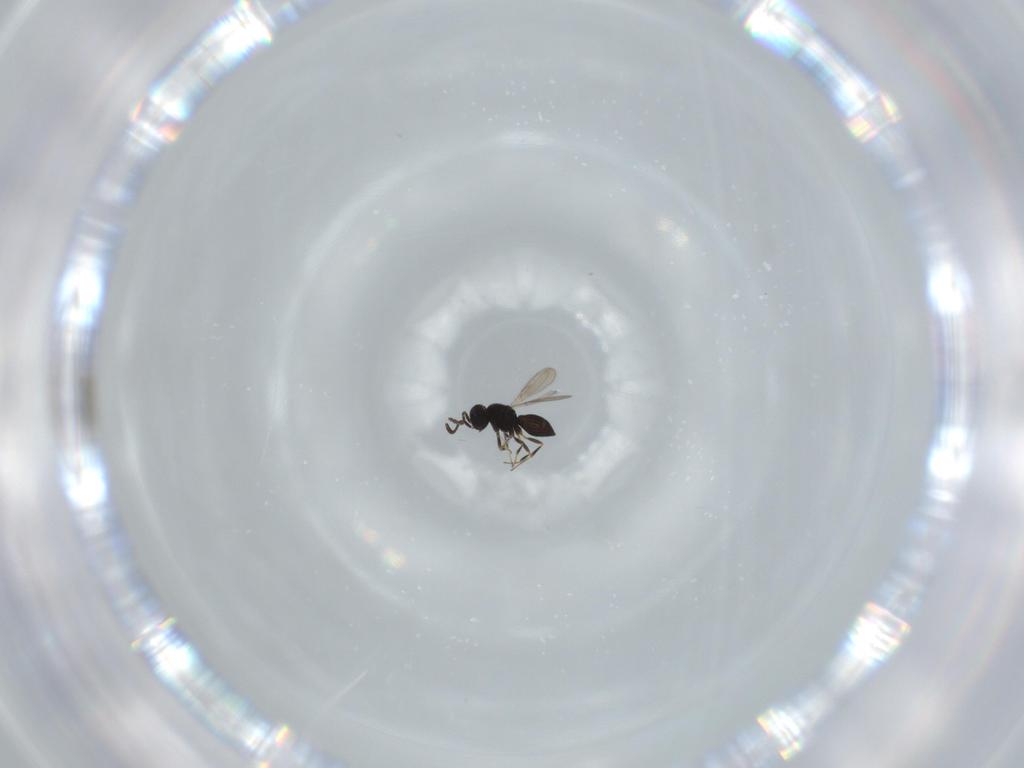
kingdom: Animalia
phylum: Arthropoda
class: Insecta
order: Hymenoptera
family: Scelionidae
